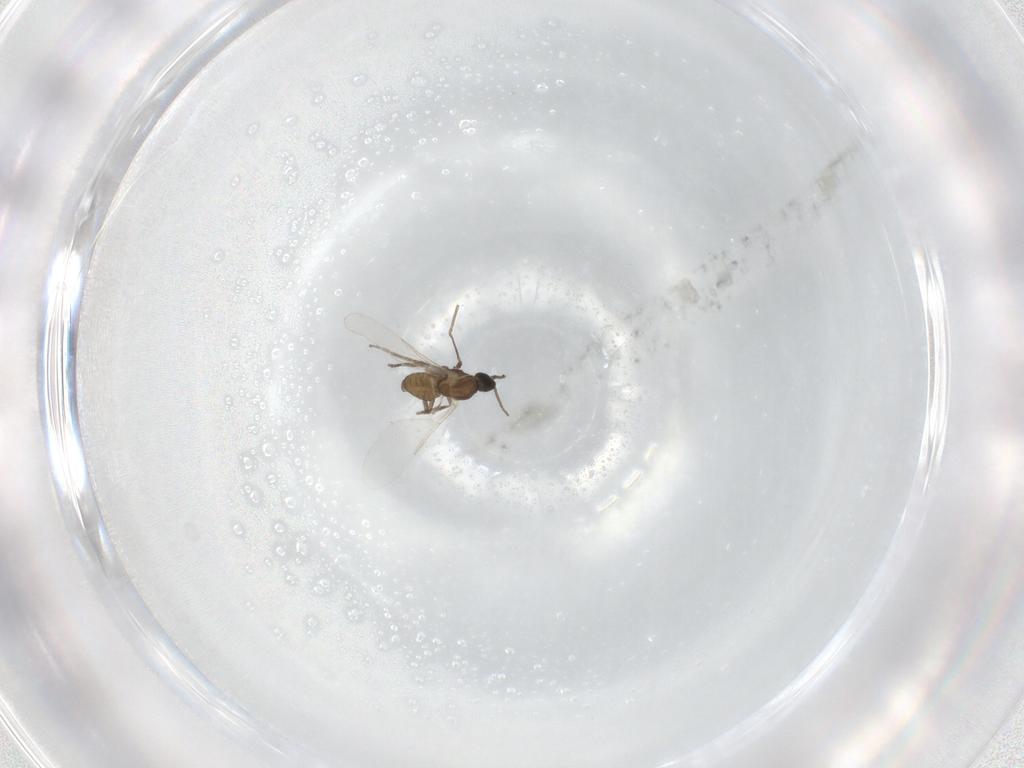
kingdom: Animalia
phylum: Arthropoda
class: Insecta
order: Diptera
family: Cecidomyiidae
